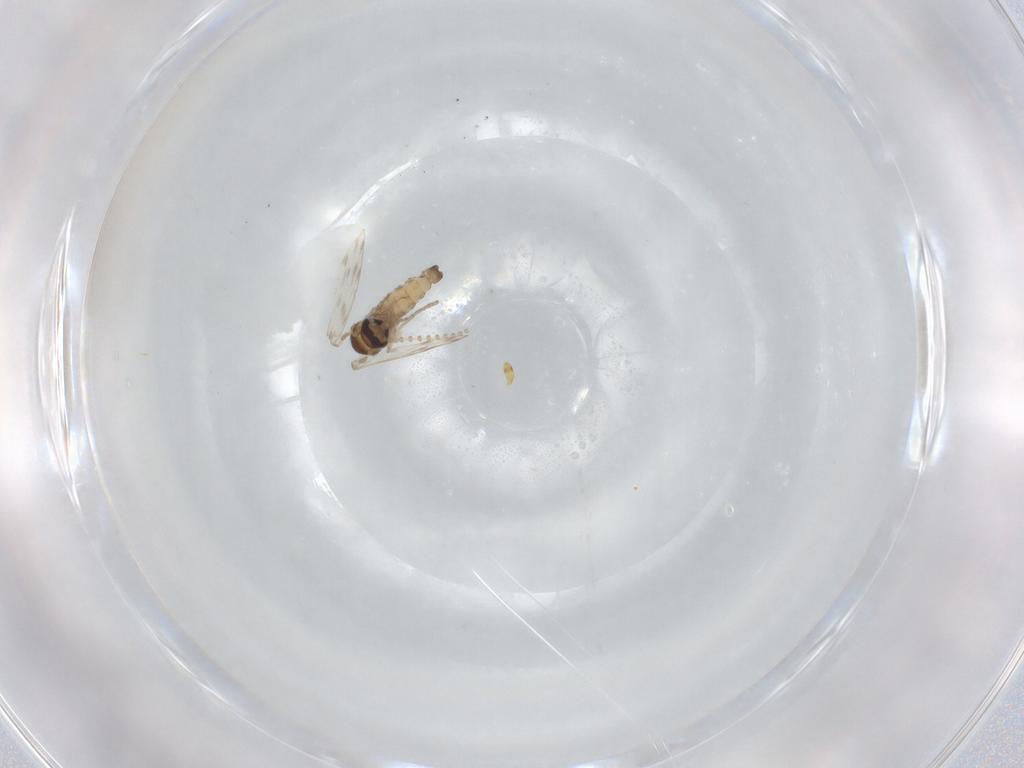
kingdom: Animalia
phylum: Arthropoda
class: Insecta
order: Diptera
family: Psychodidae
